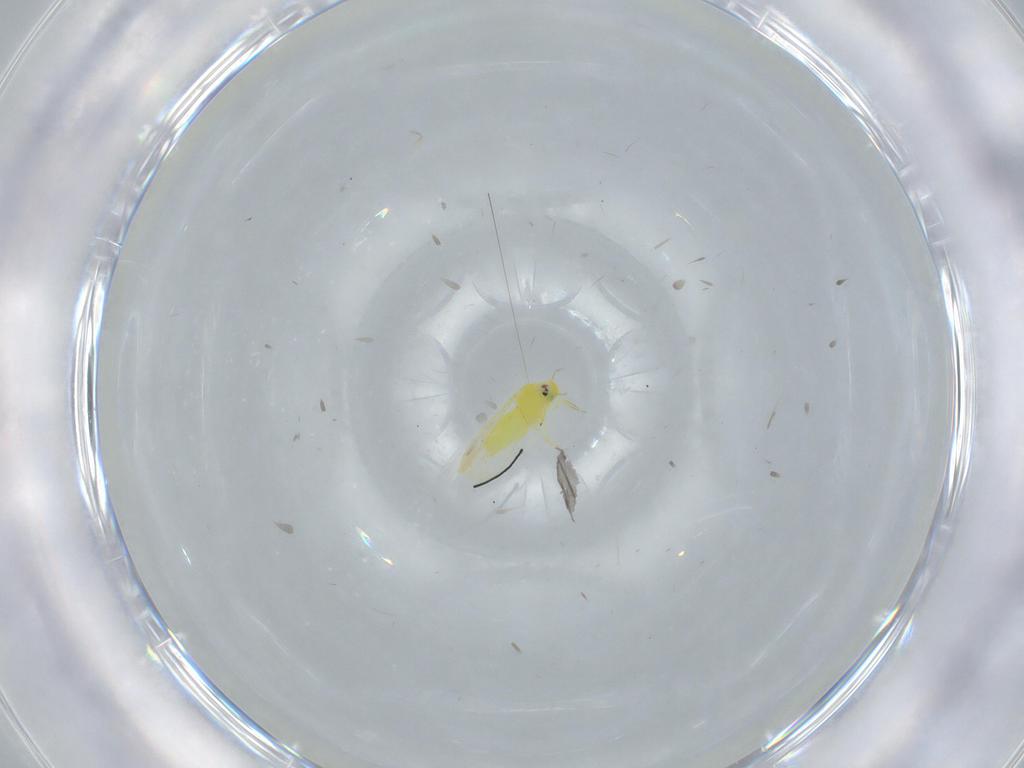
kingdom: Animalia
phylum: Arthropoda
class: Insecta
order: Hemiptera
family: Aleyrodidae
